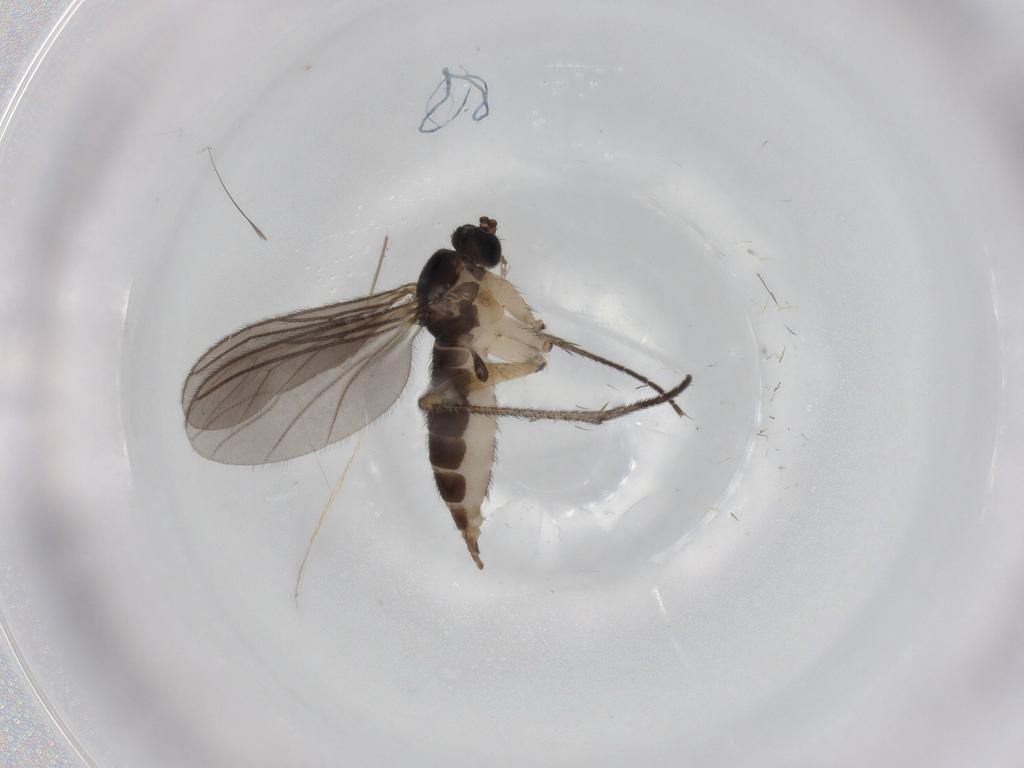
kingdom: Animalia
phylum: Arthropoda
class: Insecta
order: Diptera
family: Sciaridae
